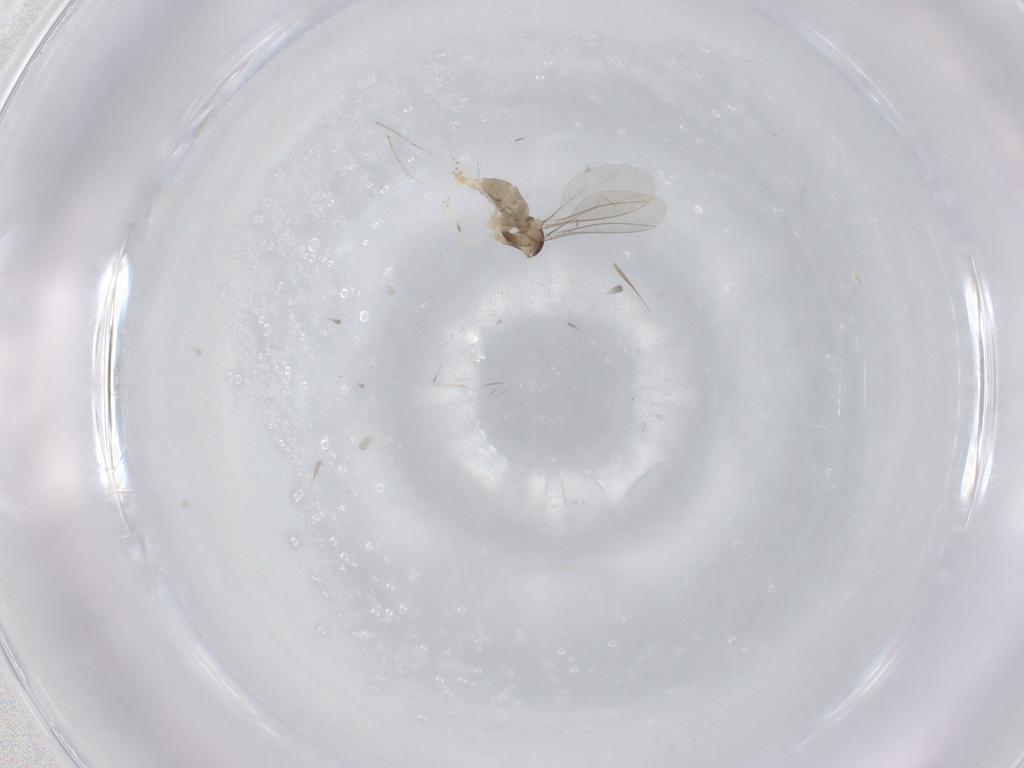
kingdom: Animalia
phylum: Arthropoda
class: Insecta
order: Diptera
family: Cecidomyiidae
